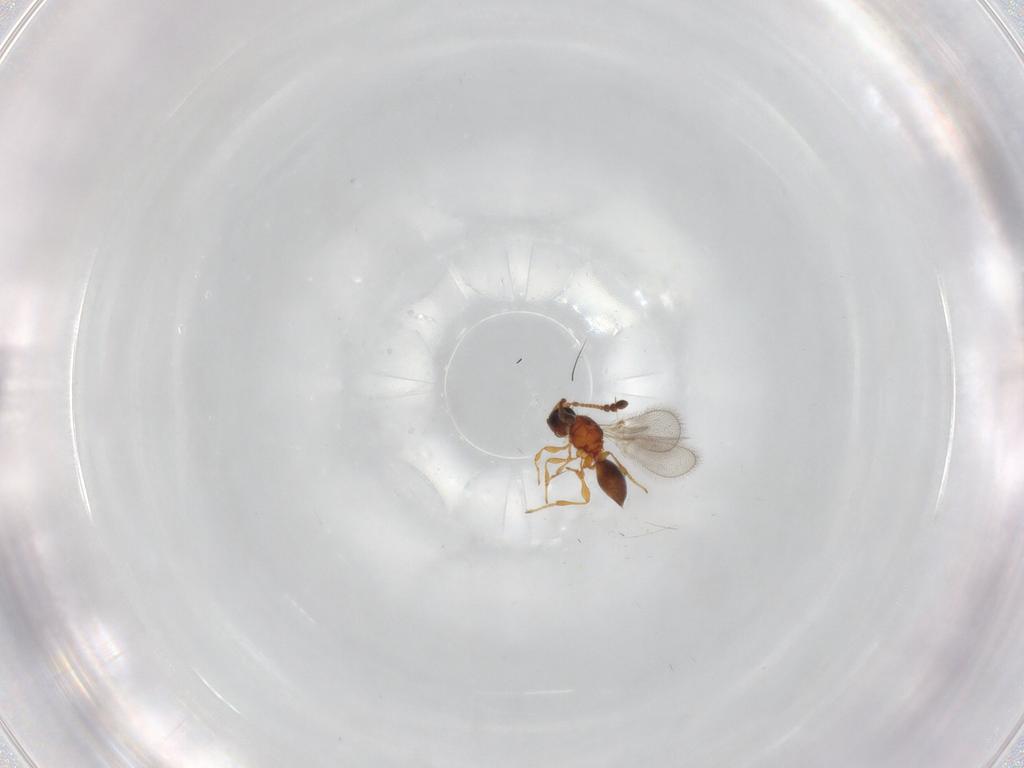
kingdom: Animalia
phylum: Arthropoda
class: Insecta
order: Hymenoptera
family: Diapriidae
